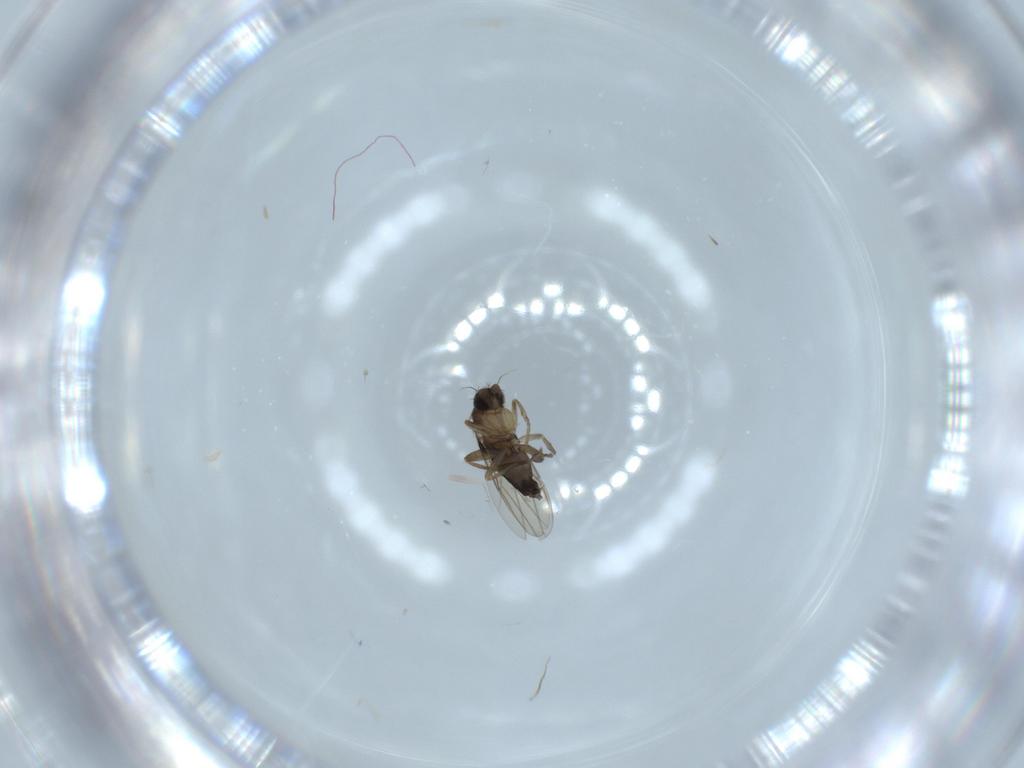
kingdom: Animalia
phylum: Arthropoda
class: Insecta
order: Diptera
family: Phoridae
